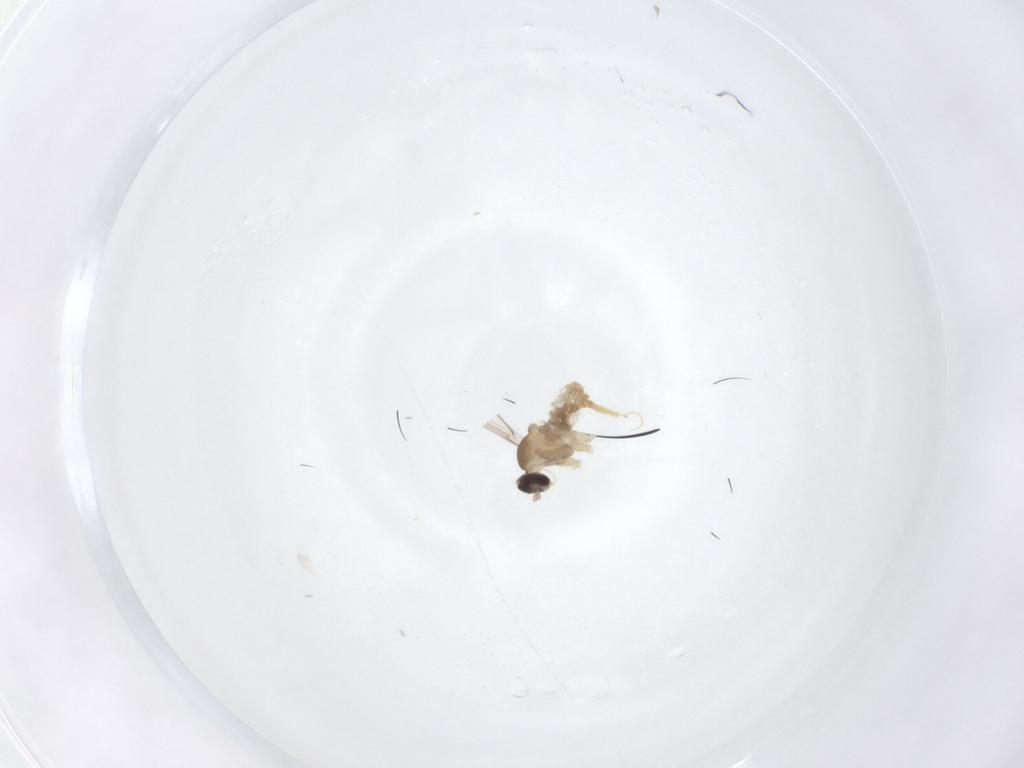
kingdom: Animalia
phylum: Arthropoda
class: Insecta
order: Diptera
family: Cecidomyiidae
